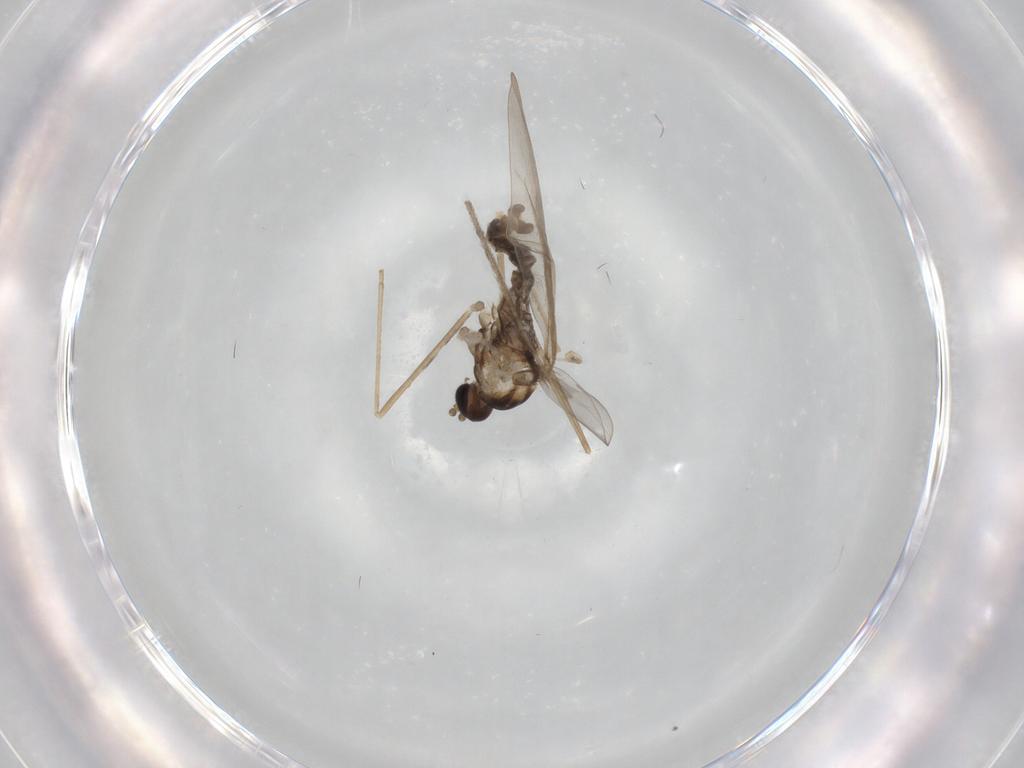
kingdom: Animalia
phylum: Arthropoda
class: Insecta
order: Diptera
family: Cecidomyiidae
